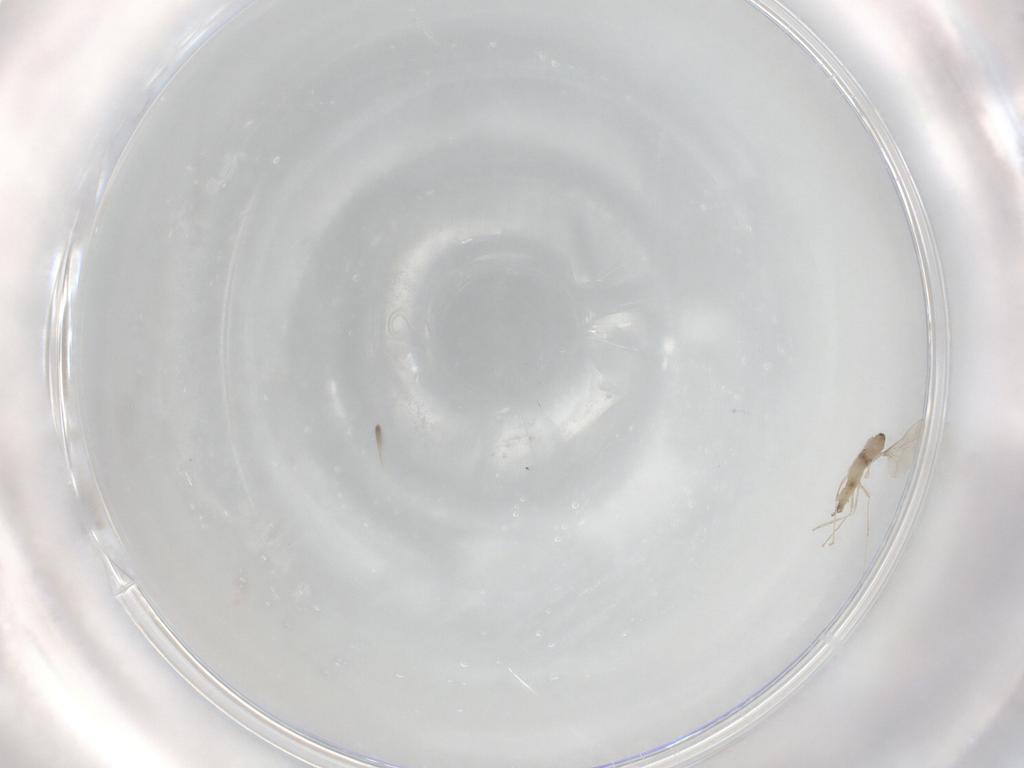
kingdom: Animalia
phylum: Arthropoda
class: Insecta
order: Diptera
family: Cecidomyiidae
